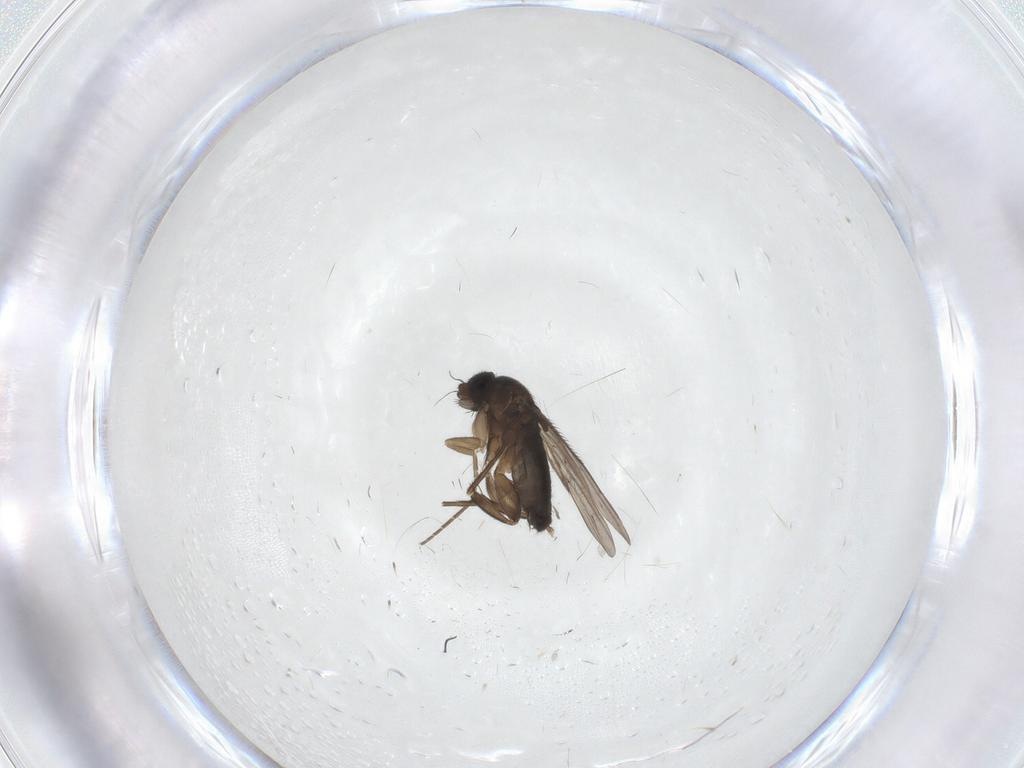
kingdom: Animalia
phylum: Arthropoda
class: Insecta
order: Diptera
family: Phoridae
